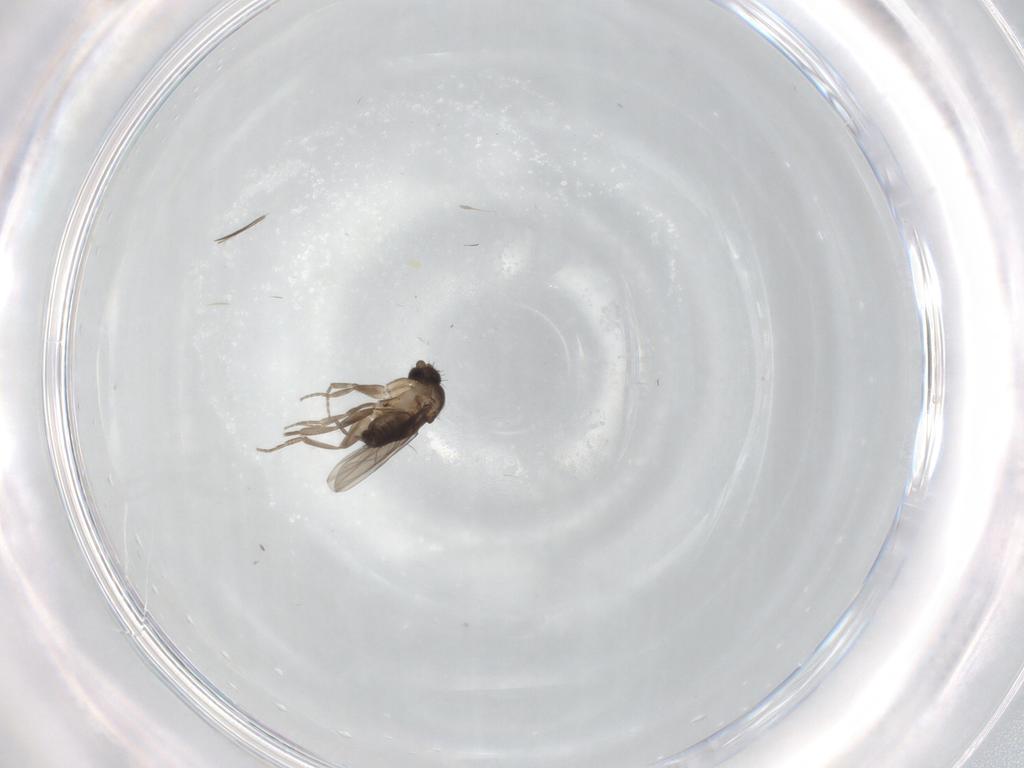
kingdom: Animalia
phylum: Arthropoda
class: Insecta
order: Diptera
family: Phoridae
